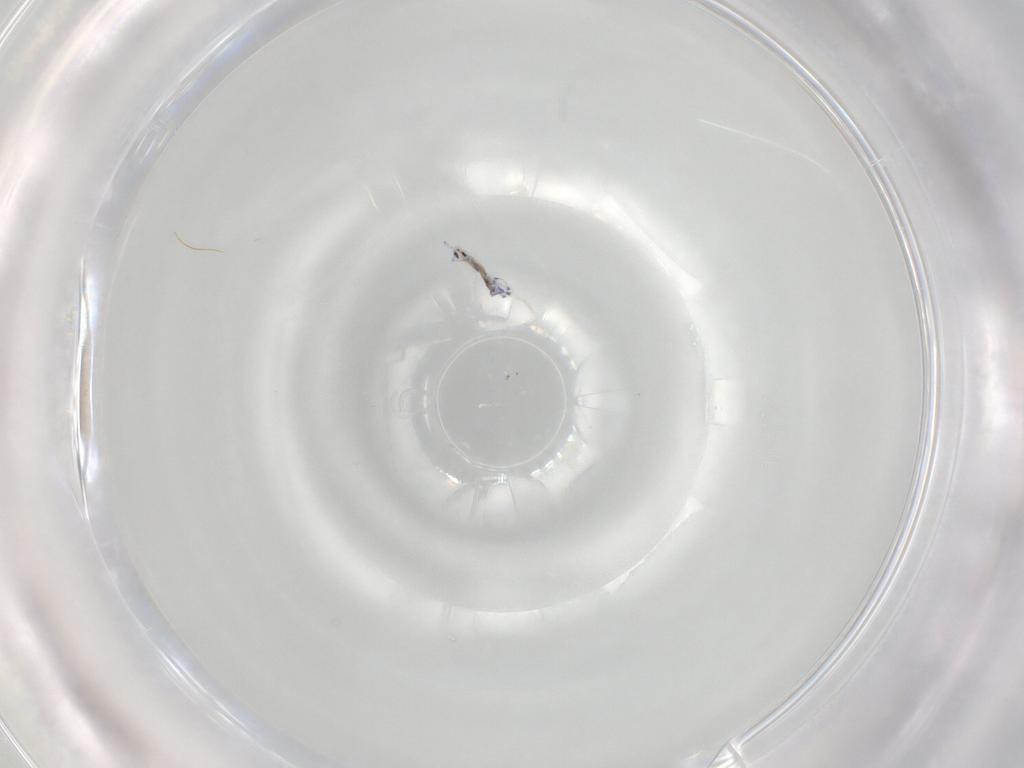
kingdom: Animalia
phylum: Arthropoda
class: Collembola
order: Entomobryomorpha
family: Entomobryidae
